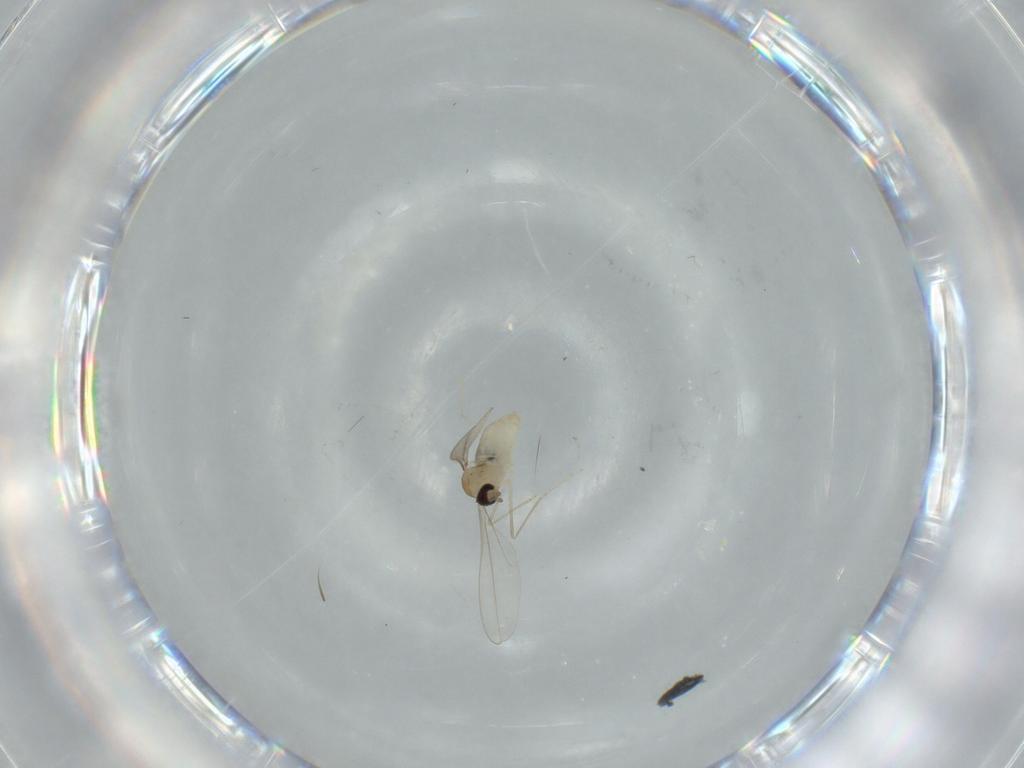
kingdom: Animalia
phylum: Arthropoda
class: Insecta
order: Diptera
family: Cecidomyiidae
